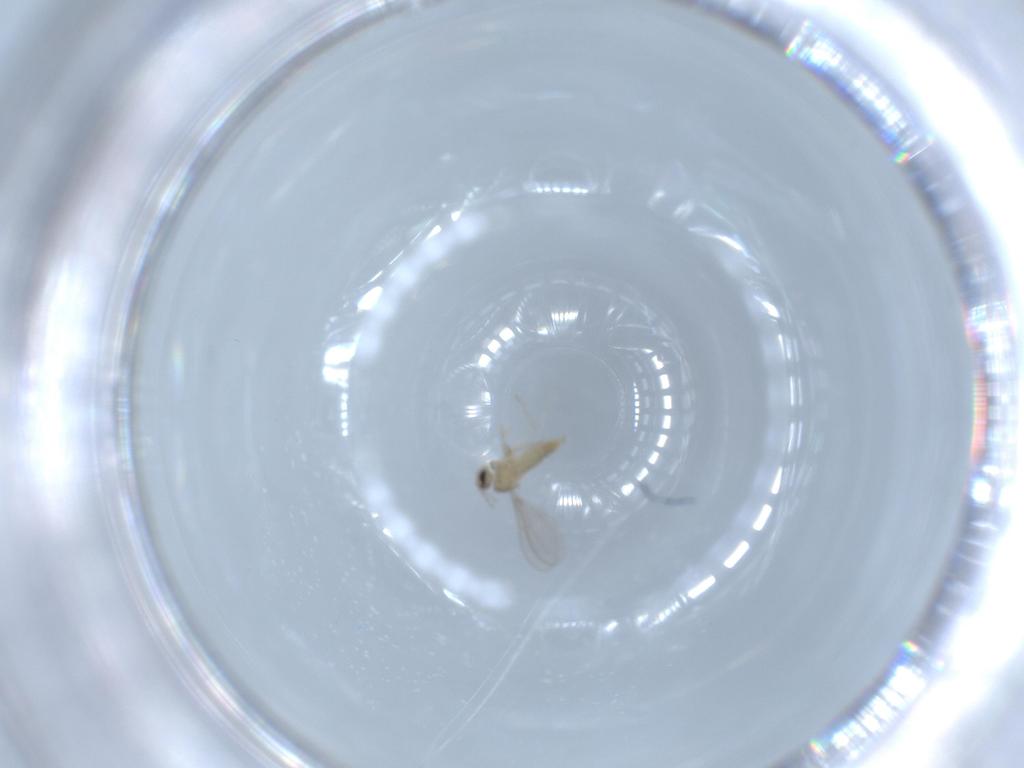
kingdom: Animalia
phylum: Arthropoda
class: Insecta
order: Diptera
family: Cecidomyiidae
